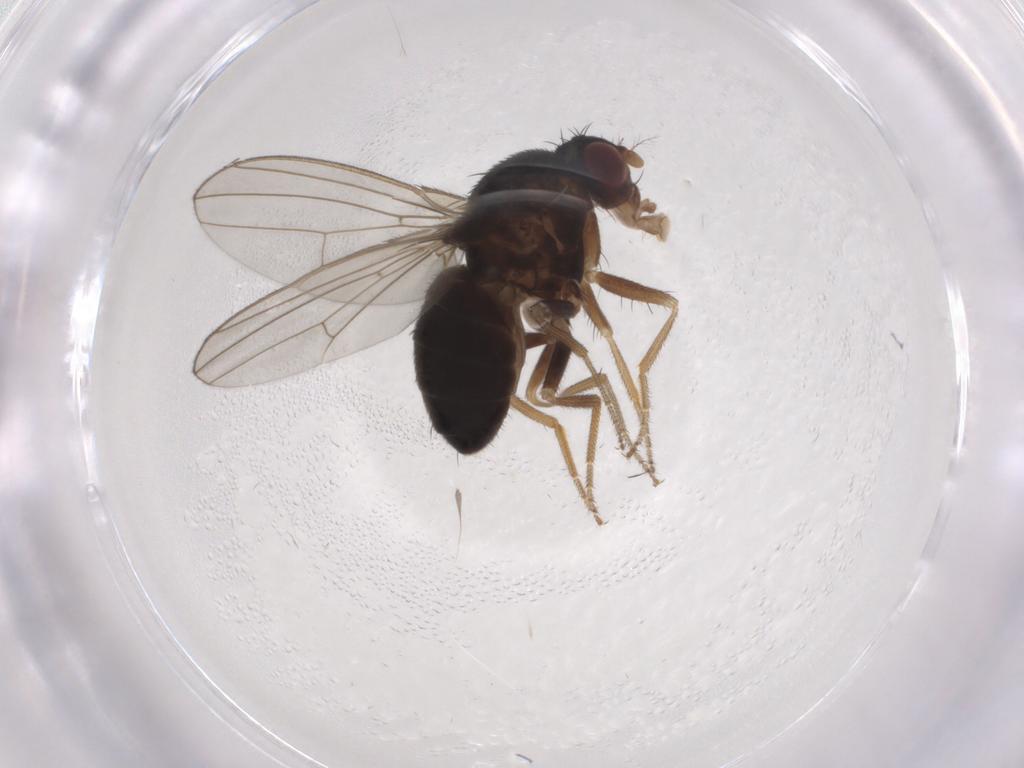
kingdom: Animalia
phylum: Arthropoda
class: Insecta
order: Diptera
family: Drosophilidae
